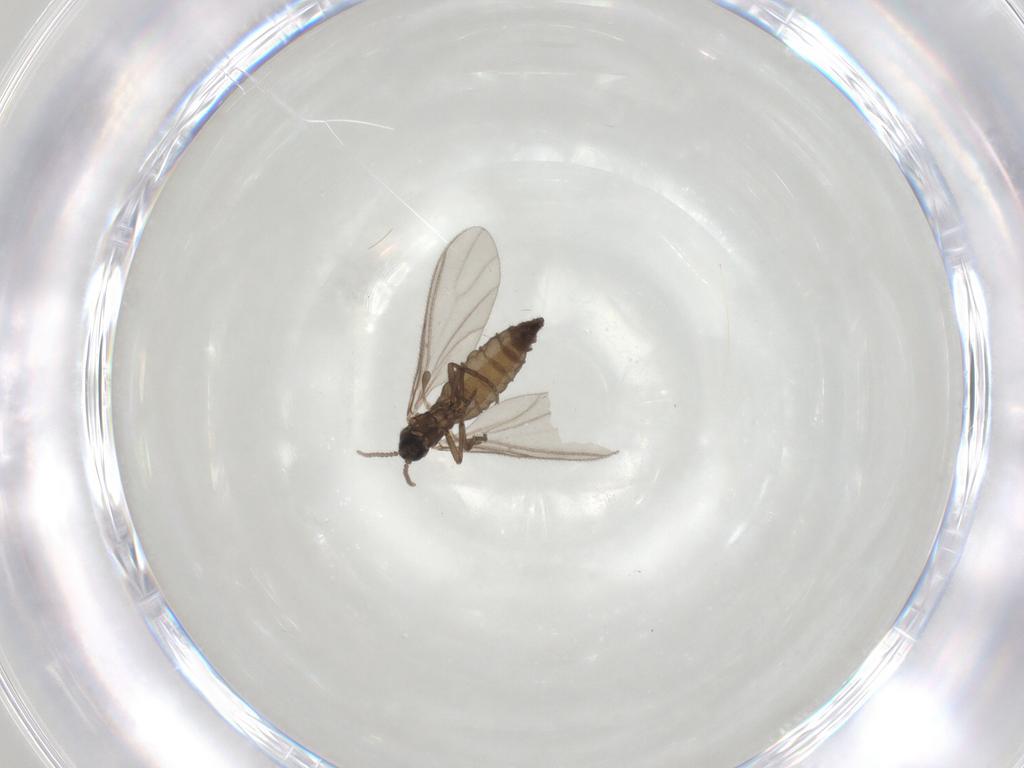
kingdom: Animalia
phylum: Arthropoda
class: Insecta
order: Diptera
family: Sciaridae
